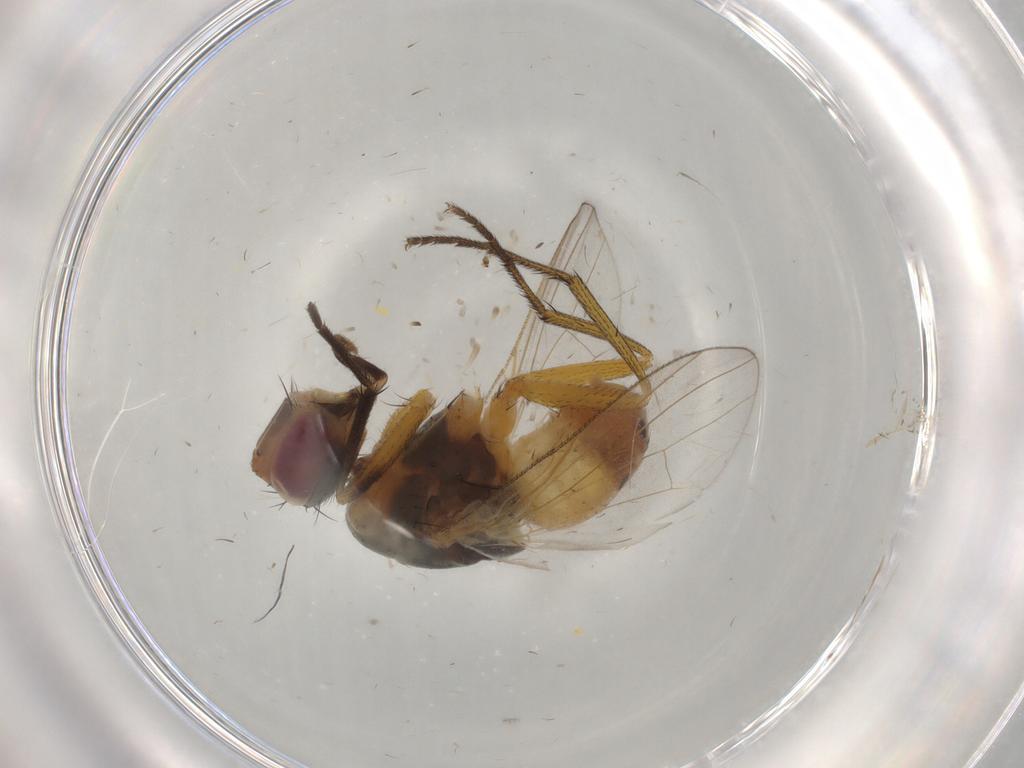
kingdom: Animalia
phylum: Arthropoda
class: Insecta
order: Diptera
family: Muscidae
